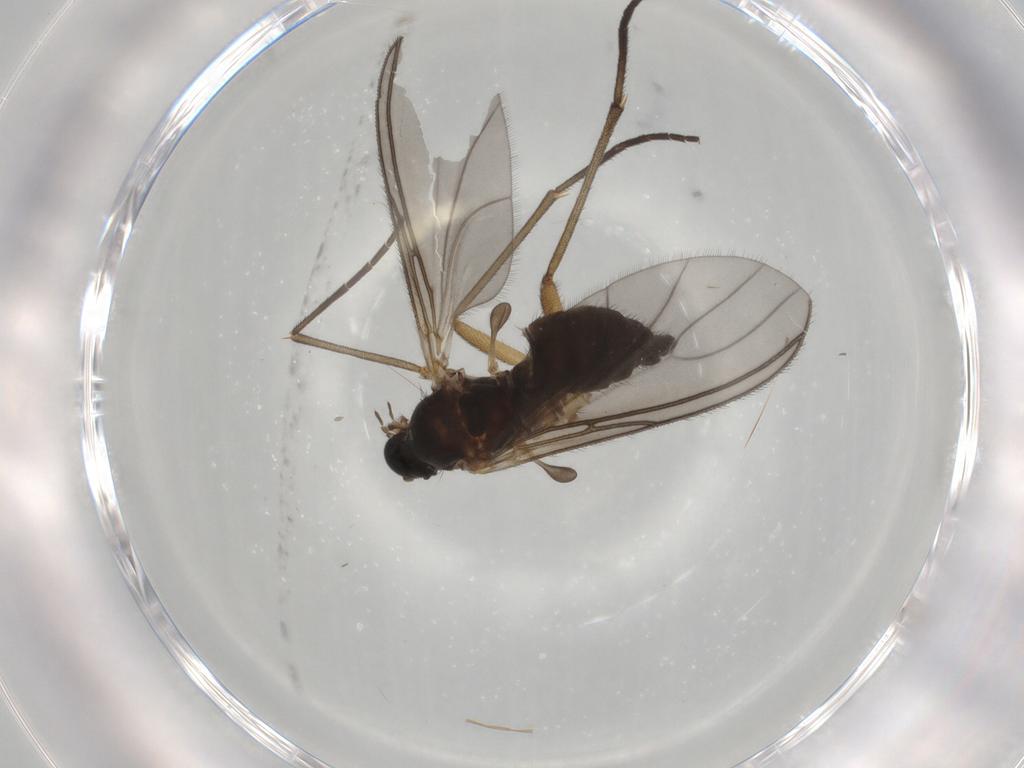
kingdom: Animalia
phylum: Arthropoda
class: Insecta
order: Diptera
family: Sciaridae
